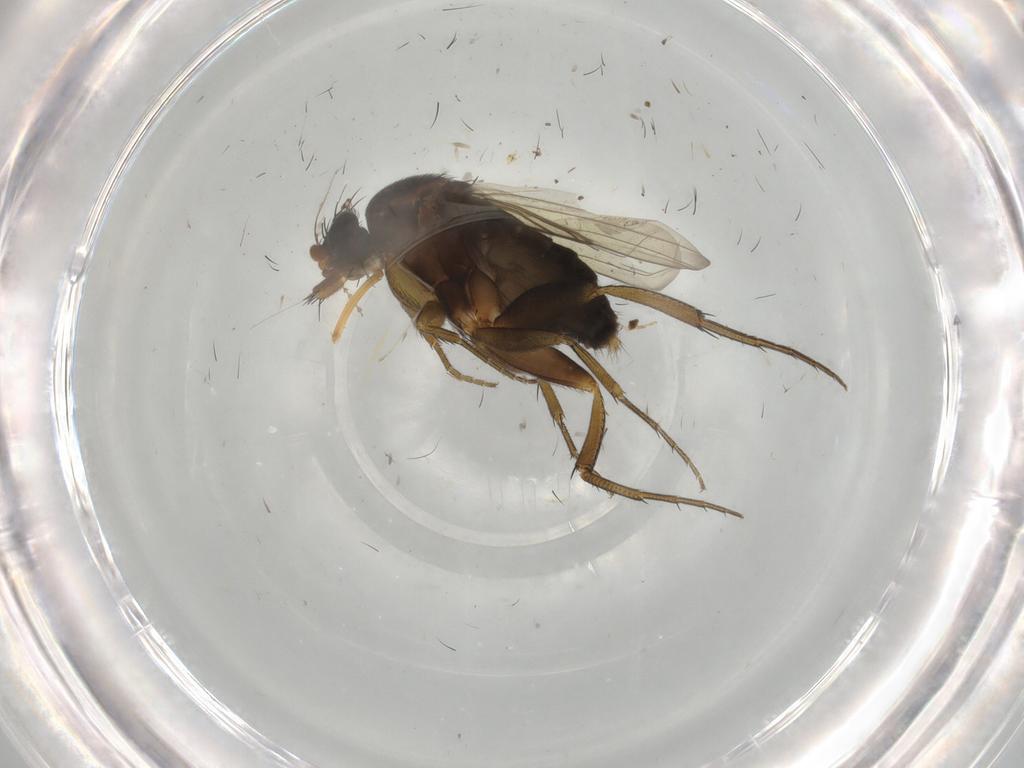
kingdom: Animalia
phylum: Arthropoda
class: Insecta
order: Diptera
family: Phoridae
